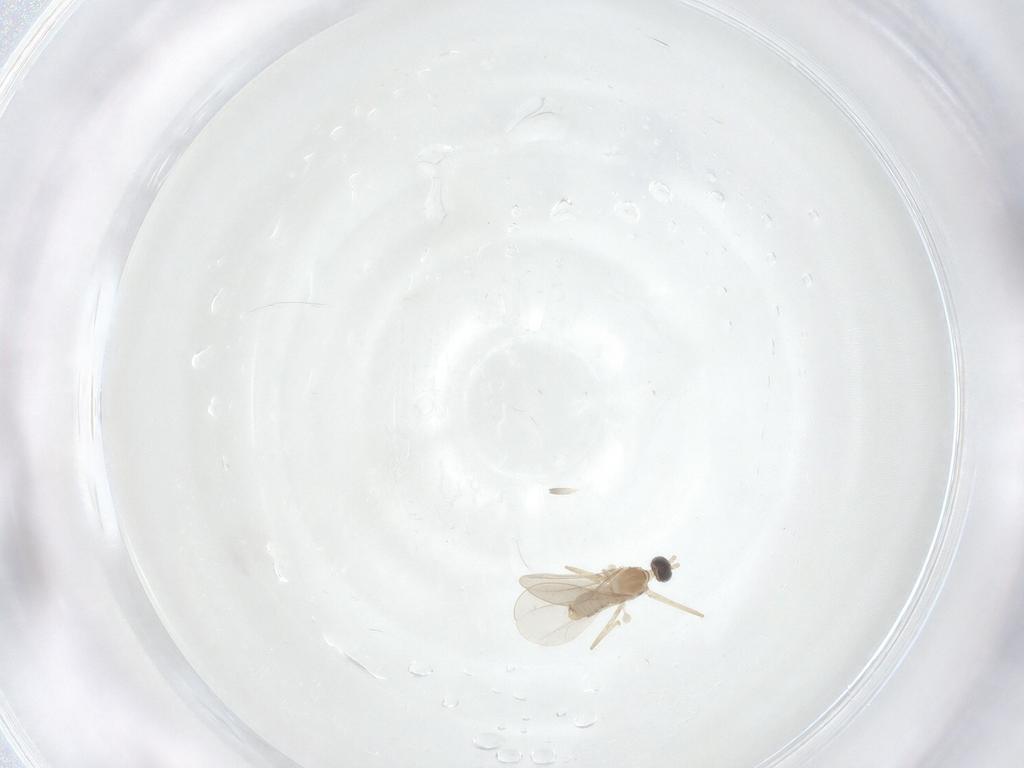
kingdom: Animalia
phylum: Arthropoda
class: Insecta
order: Diptera
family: Cecidomyiidae
